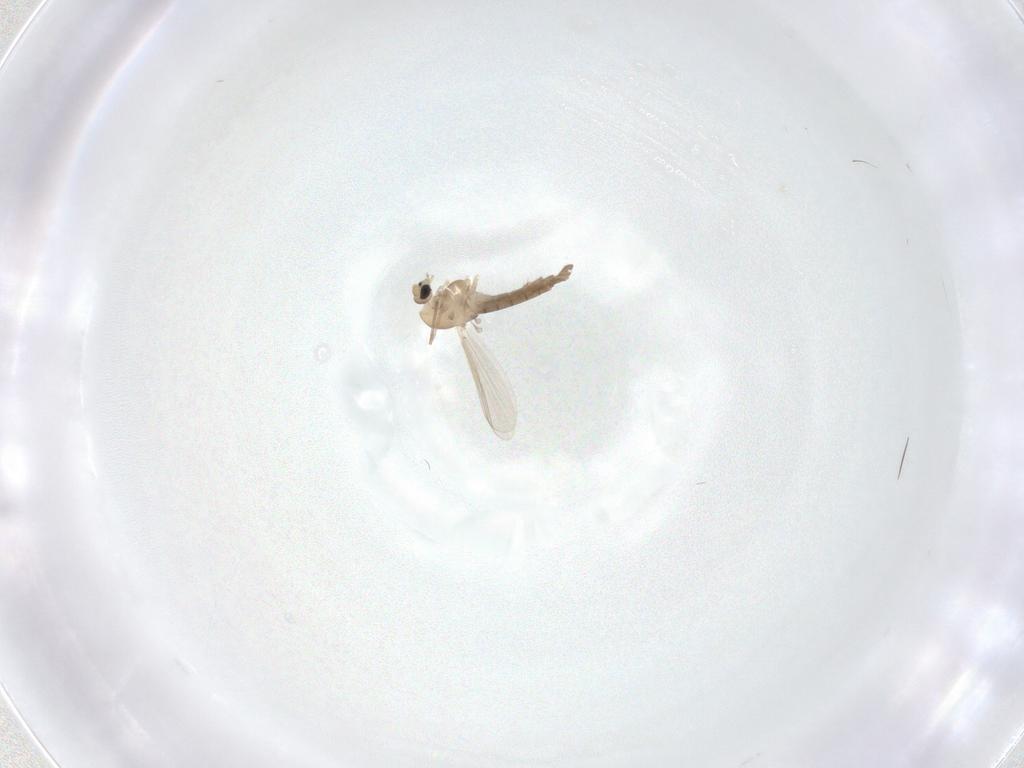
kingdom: Animalia
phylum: Arthropoda
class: Insecta
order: Diptera
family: Chironomidae
